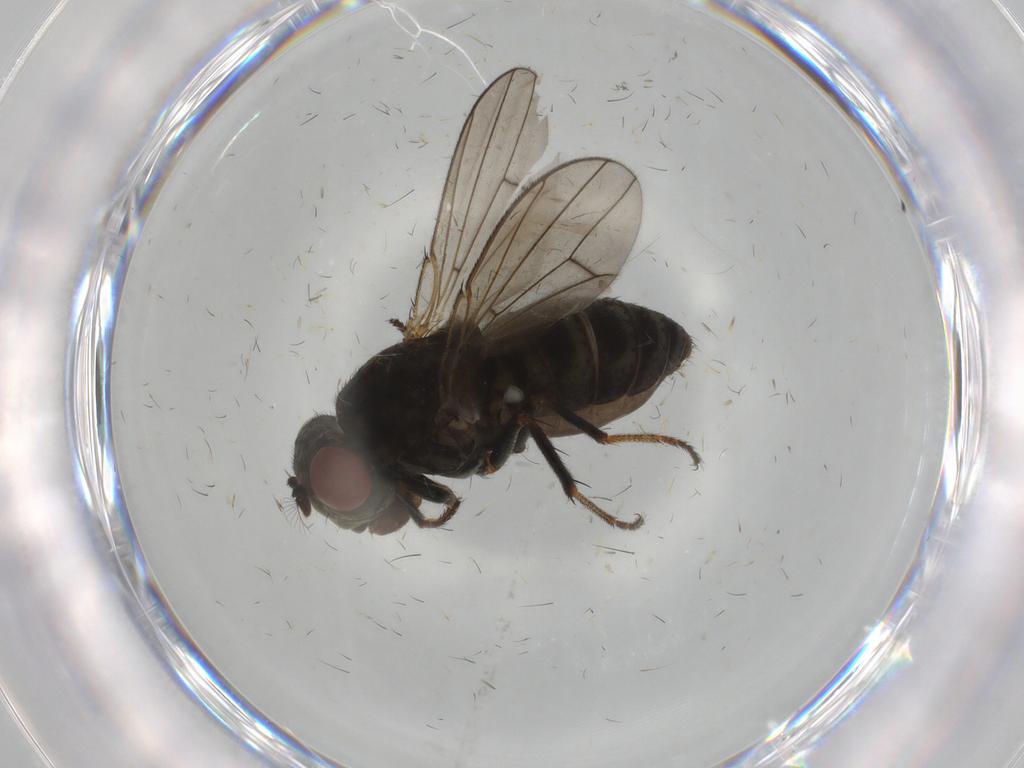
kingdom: Animalia
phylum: Arthropoda
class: Insecta
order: Diptera
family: Ephydridae
